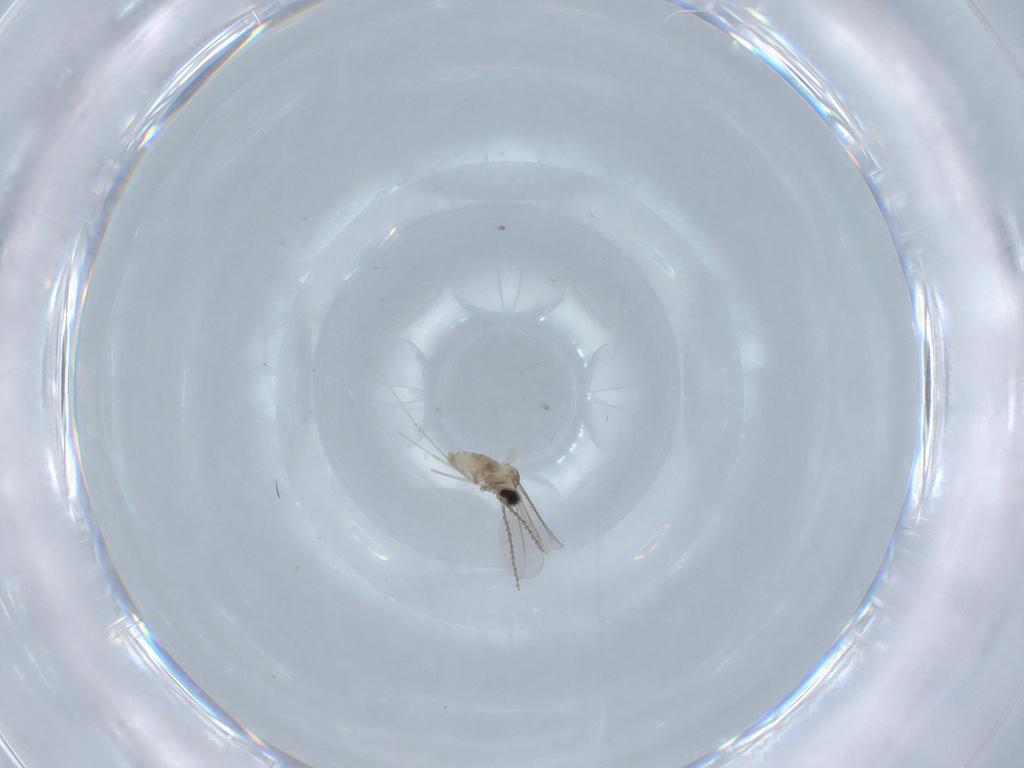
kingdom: Animalia
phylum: Arthropoda
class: Insecta
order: Diptera
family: Cecidomyiidae
